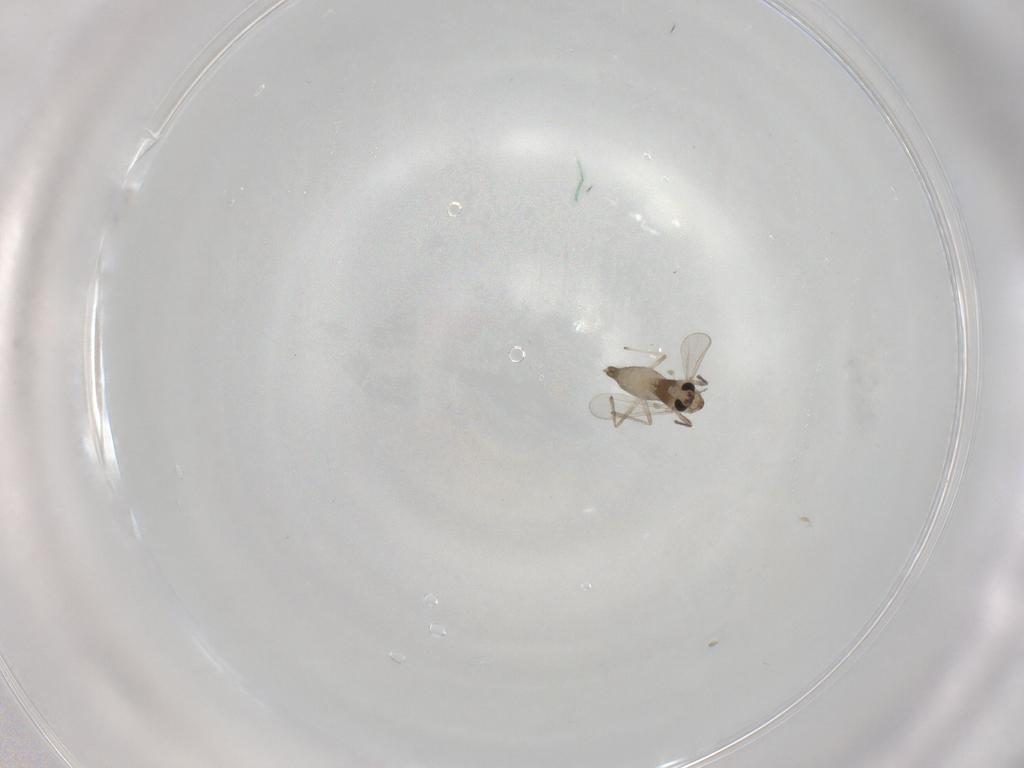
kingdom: Animalia
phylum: Arthropoda
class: Insecta
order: Diptera
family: Chironomidae
